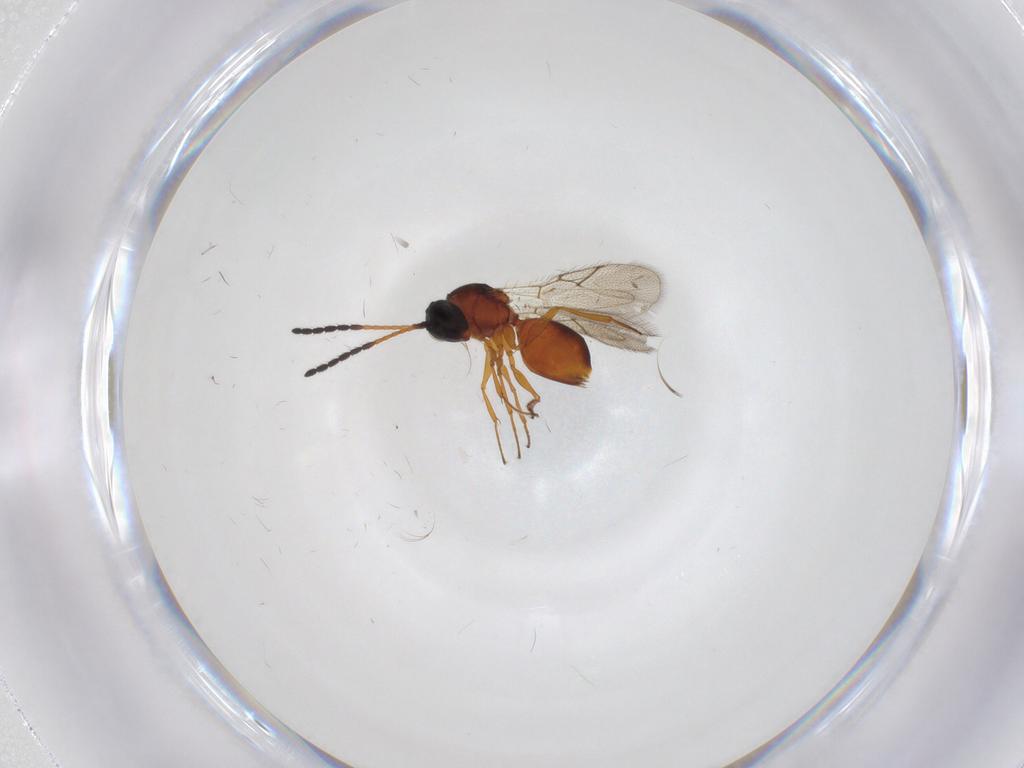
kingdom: Animalia
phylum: Arthropoda
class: Insecta
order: Hymenoptera
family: Figitidae
